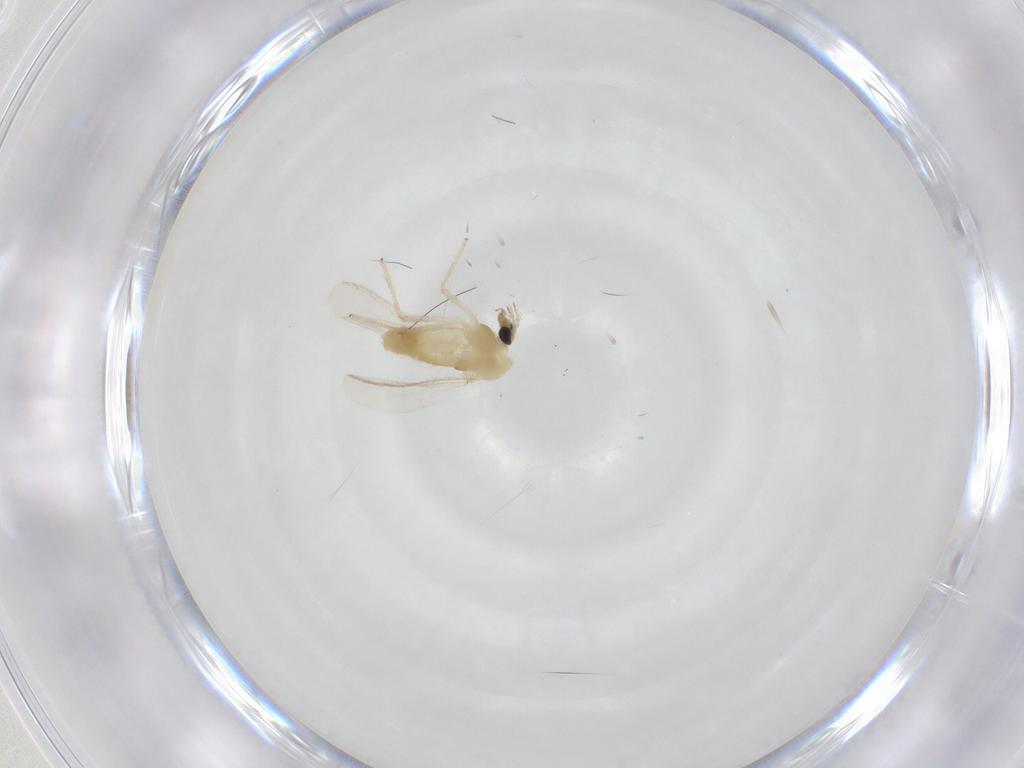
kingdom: Animalia
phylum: Arthropoda
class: Insecta
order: Diptera
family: Chironomidae
